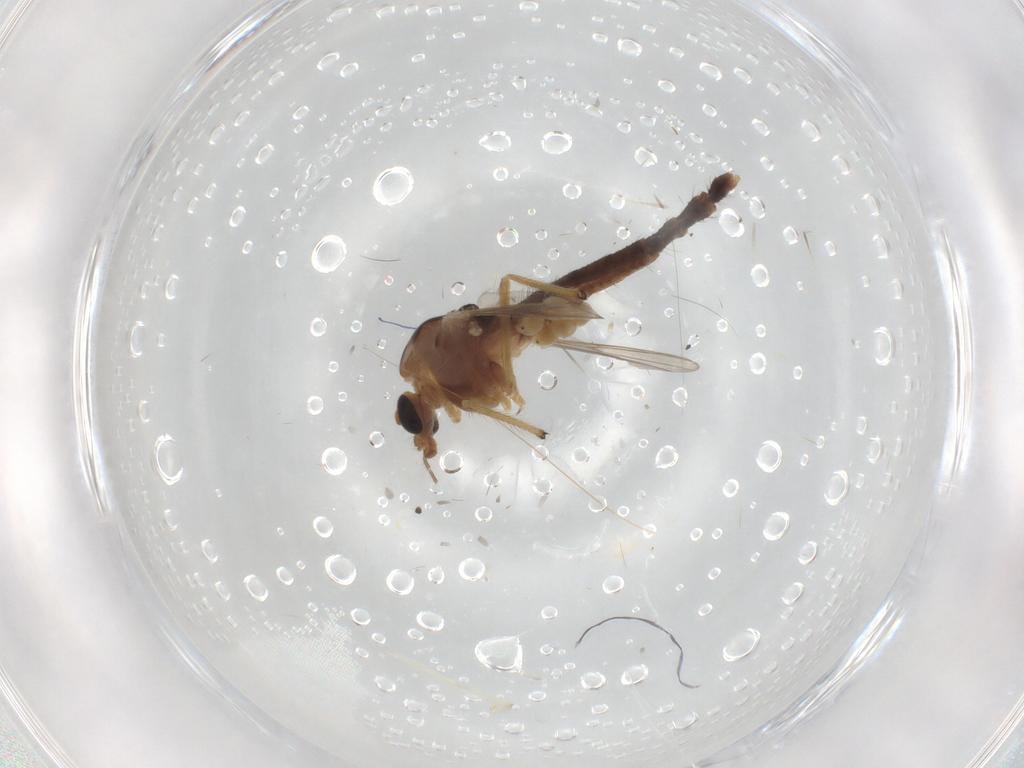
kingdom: Animalia
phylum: Arthropoda
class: Insecta
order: Diptera
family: Chironomidae
